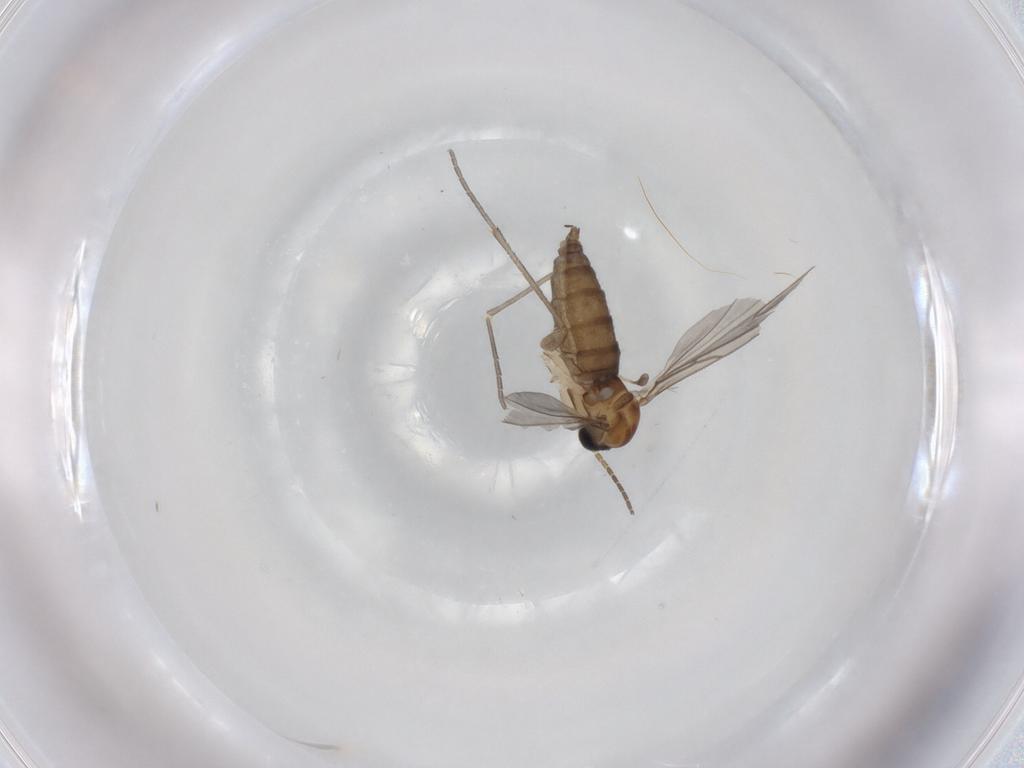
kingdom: Animalia
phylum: Arthropoda
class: Insecta
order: Diptera
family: Sciaridae
